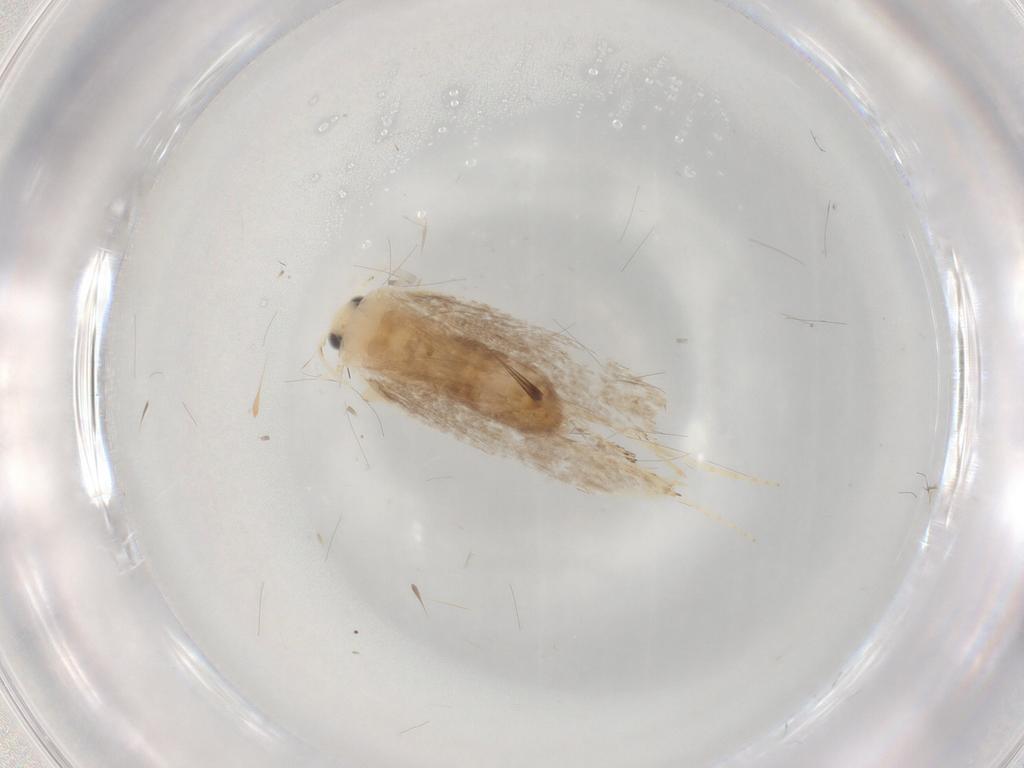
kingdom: Animalia
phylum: Arthropoda
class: Insecta
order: Lepidoptera
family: Dryadaulidae
